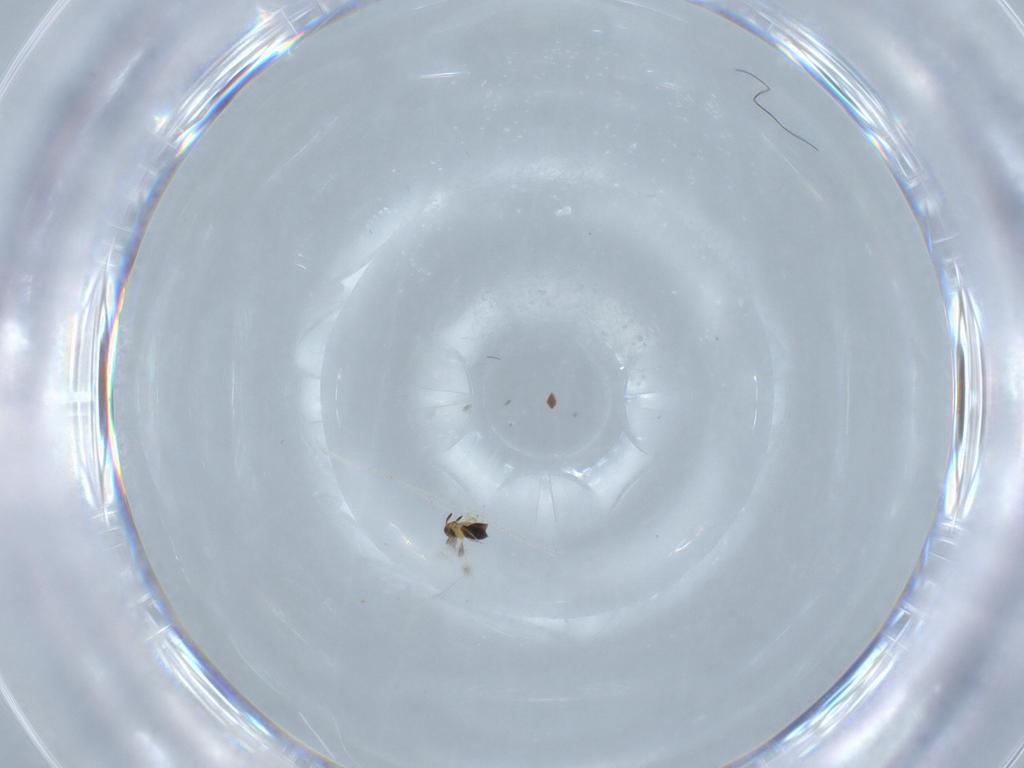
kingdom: Animalia
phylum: Arthropoda
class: Insecta
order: Hymenoptera
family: Signiphoridae
